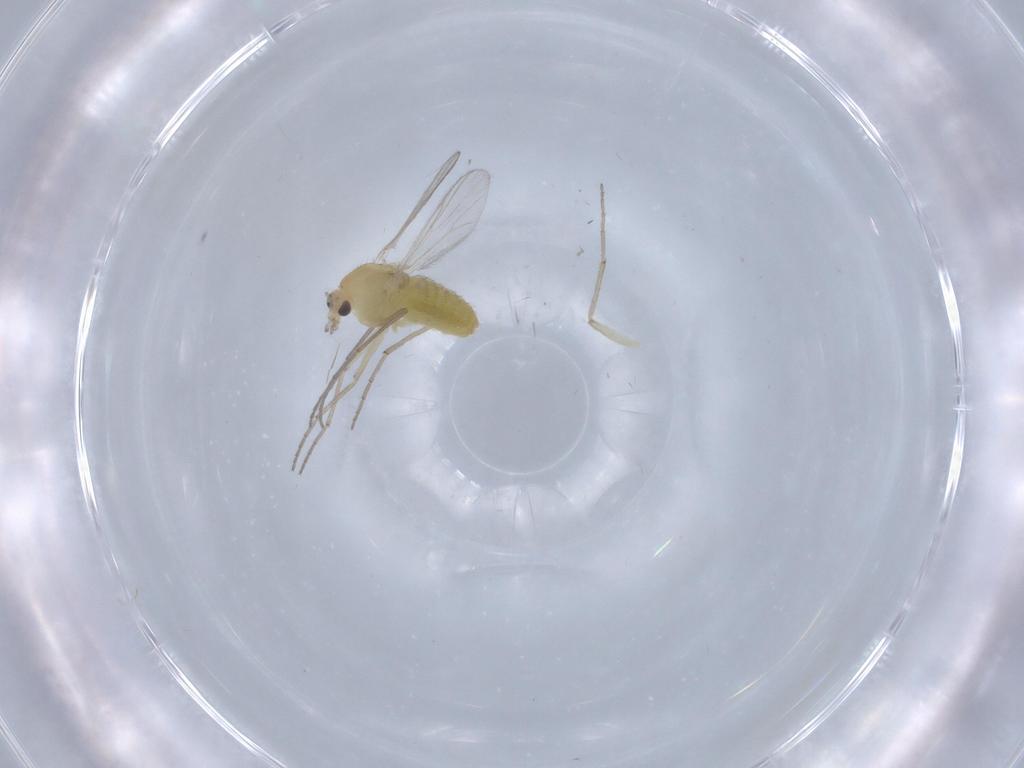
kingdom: Animalia
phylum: Arthropoda
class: Insecta
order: Diptera
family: Chironomidae
